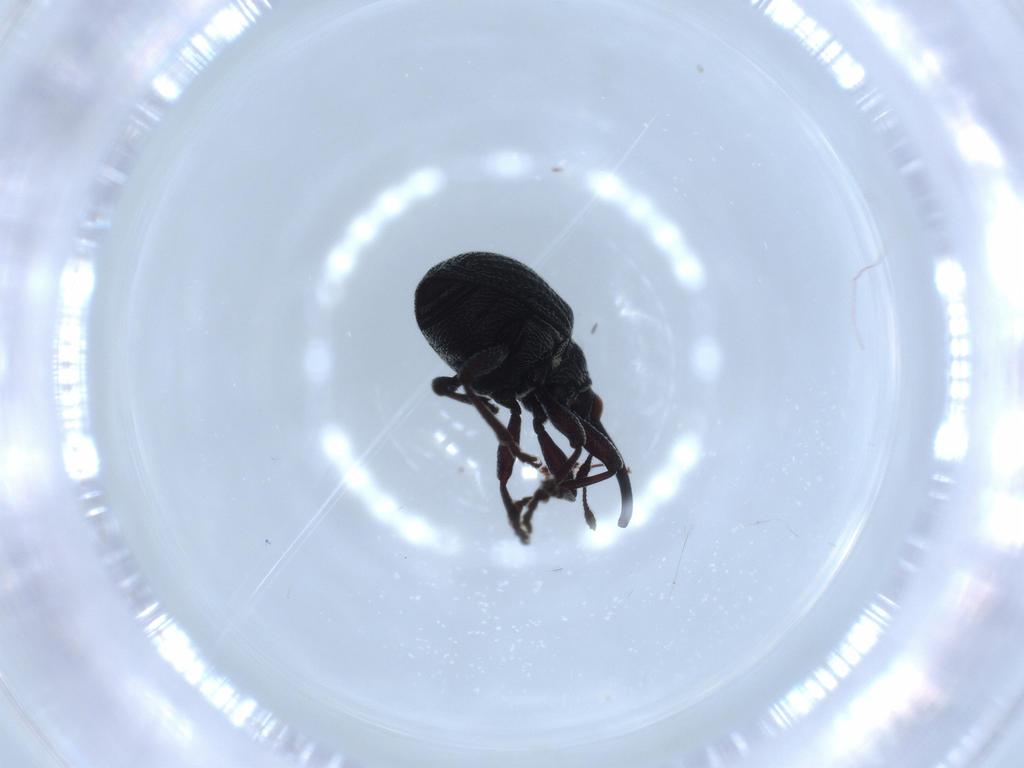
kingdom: Animalia
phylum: Arthropoda
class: Insecta
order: Coleoptera
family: Brentidae
